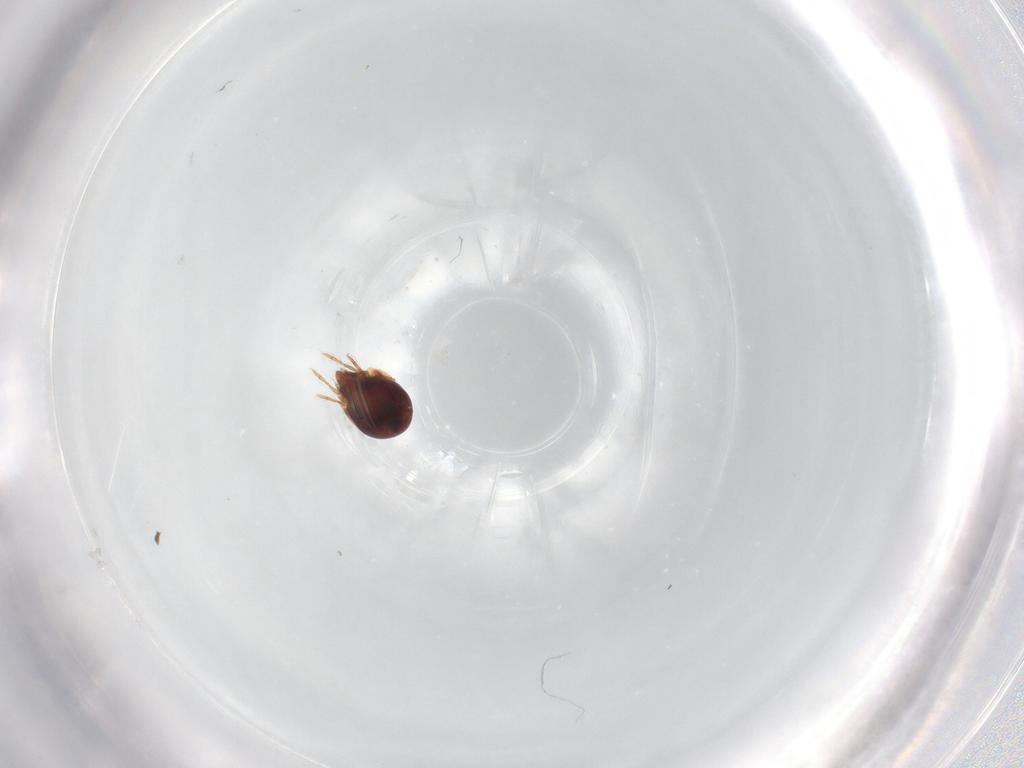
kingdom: Animalia
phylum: Arthropoda
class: Arachnida
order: Sarcoptiformes
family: Humerobatidae
